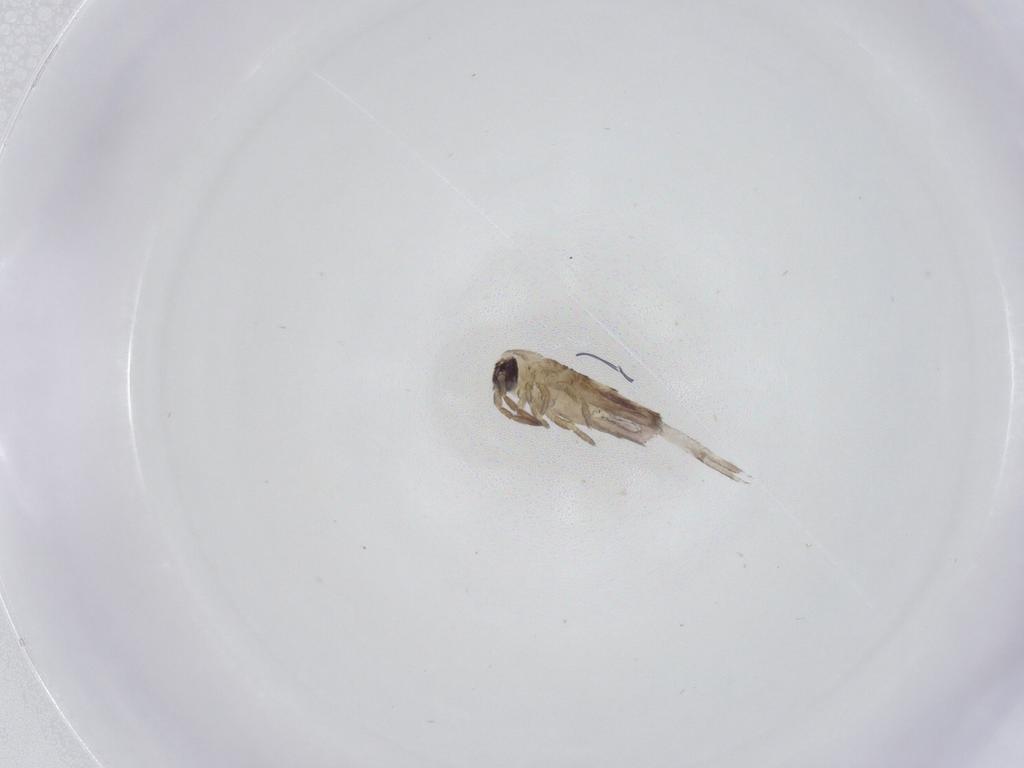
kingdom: Animalia
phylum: Arthropoda
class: Collembola
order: Entomobryomorpha
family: Entomobryidae
